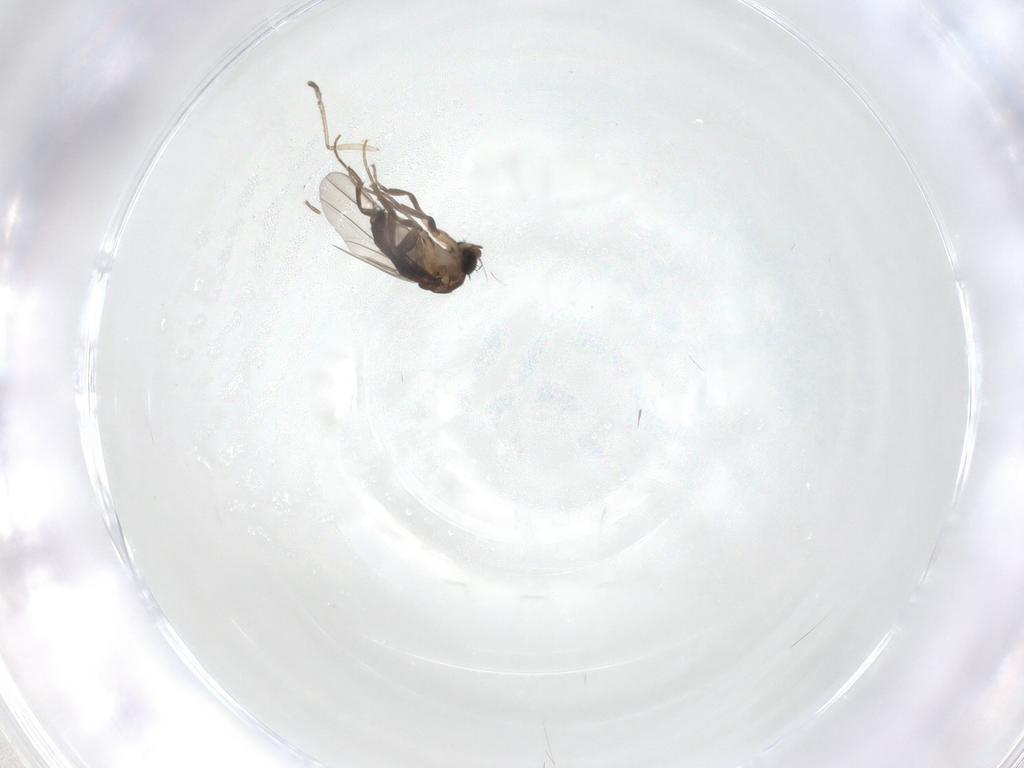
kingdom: Animalia
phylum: Arthropoda
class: Insecta
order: Diptera
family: Phoridae
